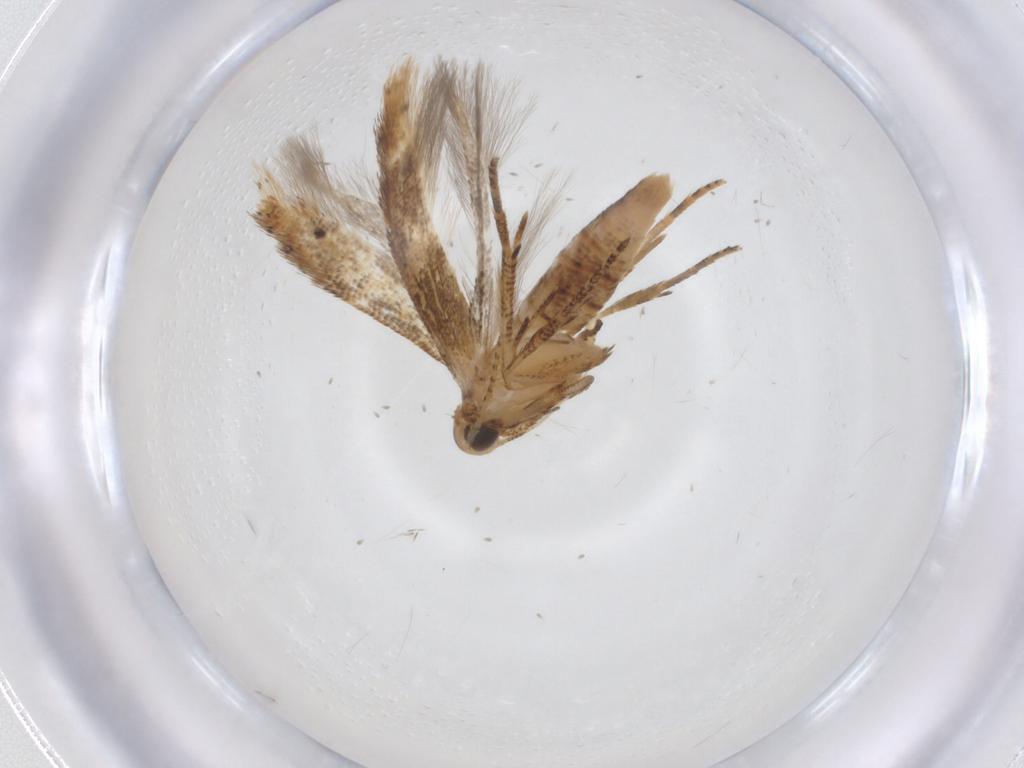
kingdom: Animalia
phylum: Arthropoda
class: Insecta
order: Lepidoptera
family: Gelechiidae
